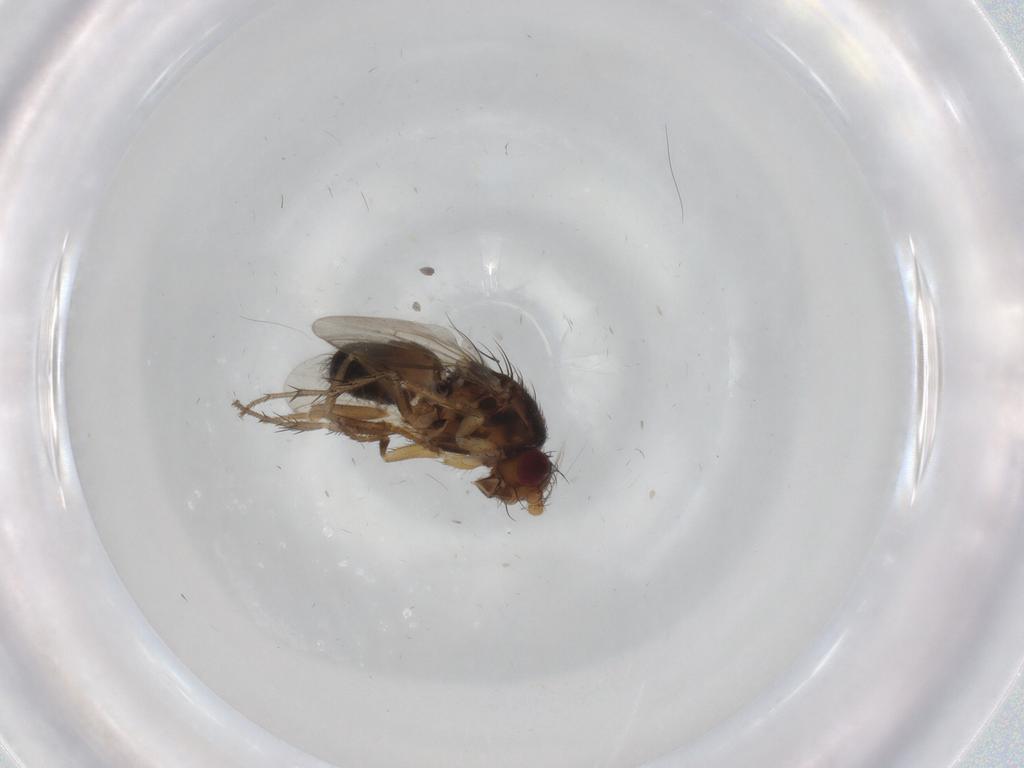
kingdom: Animalia
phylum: Arthropoda
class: Insecta
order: Diptera
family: Sphaeroceridae
